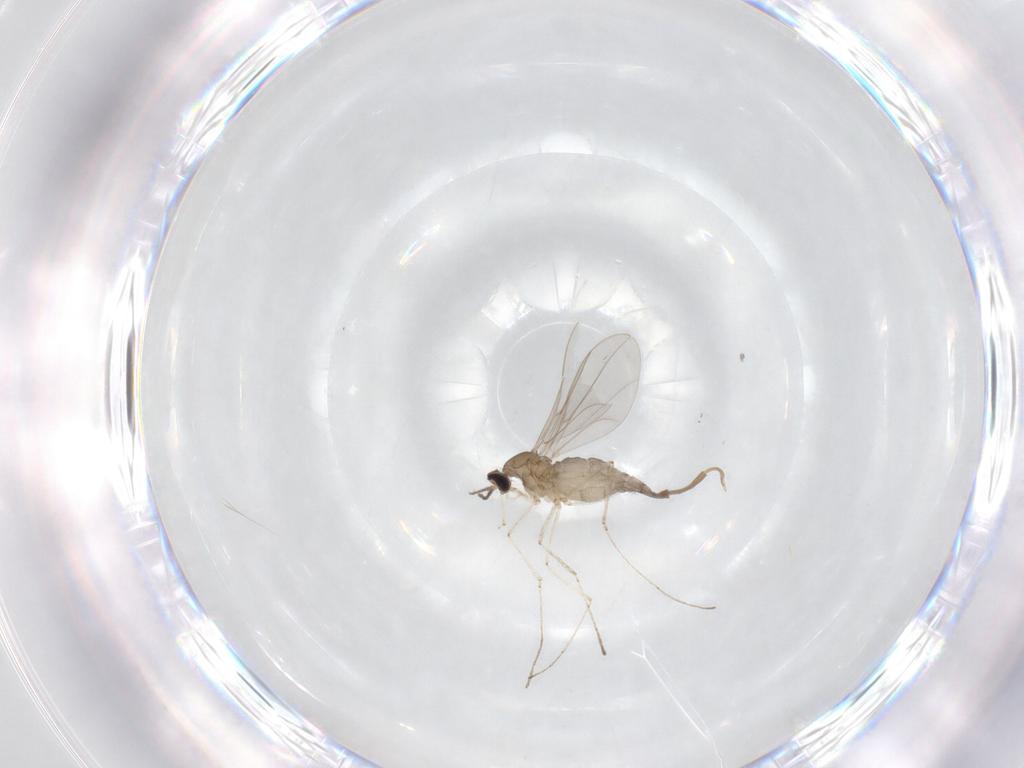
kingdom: Animalia
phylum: Arthropoda
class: Insecta
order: Diptera
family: Cecidomyiidae
